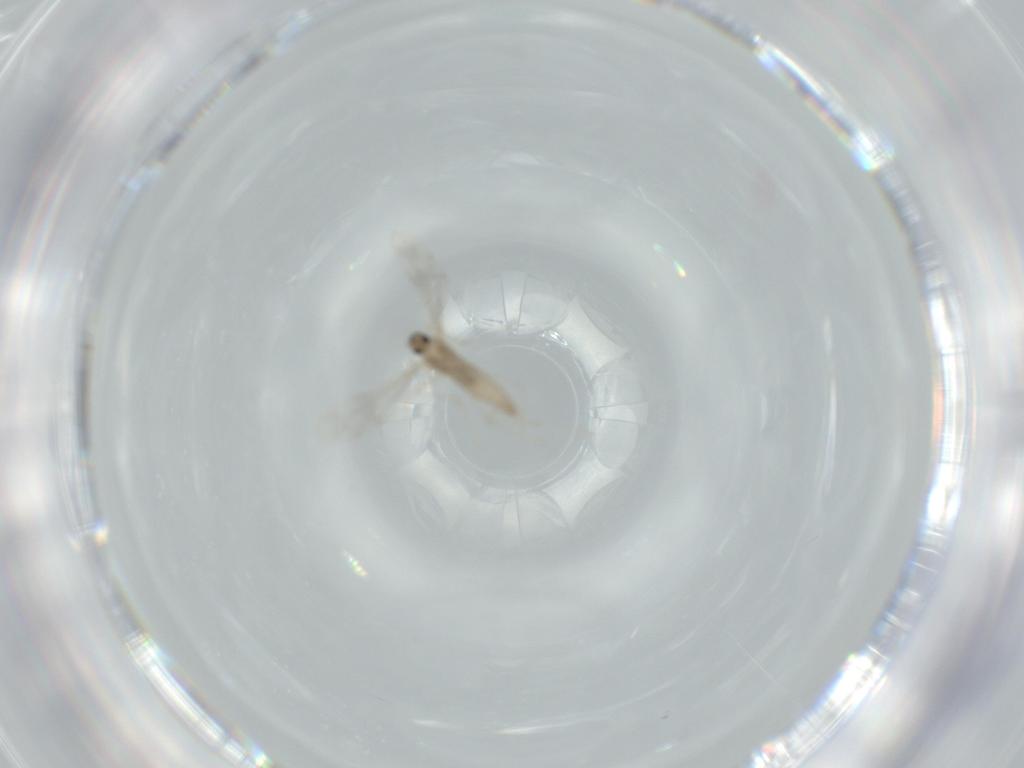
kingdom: Animalia
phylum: Arthropoda
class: Insecta
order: Diptera
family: Cecidomyiidae
